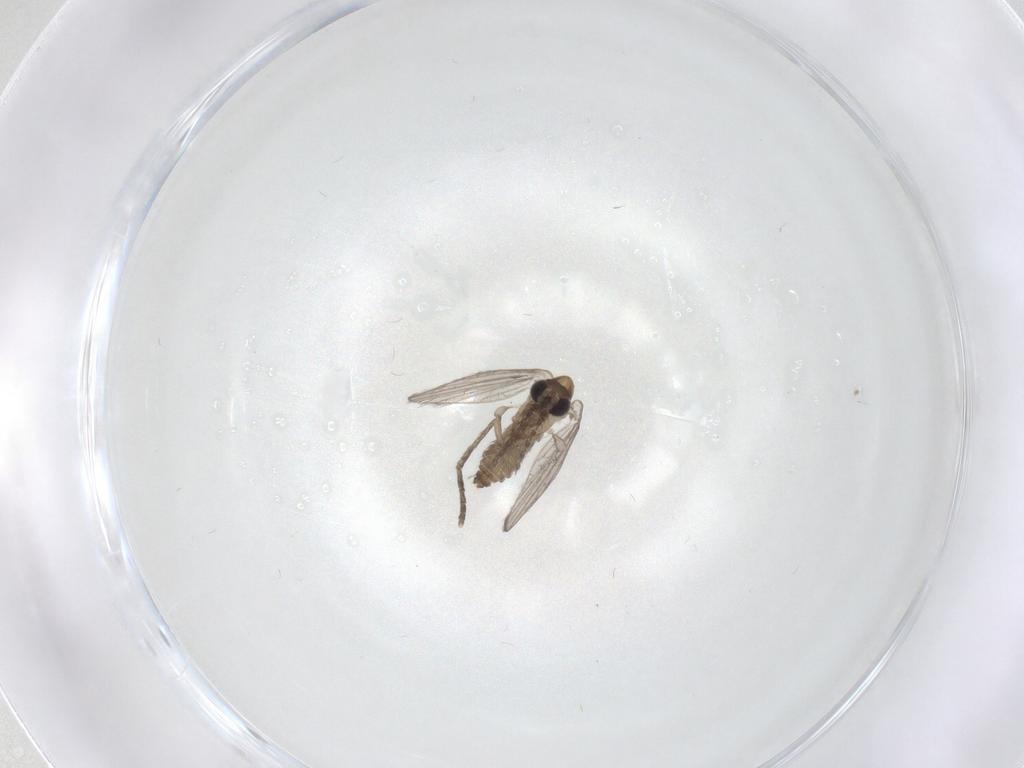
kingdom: Animalia
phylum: Arthropoda
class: Insecta
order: Diptera
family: Psychodidae
